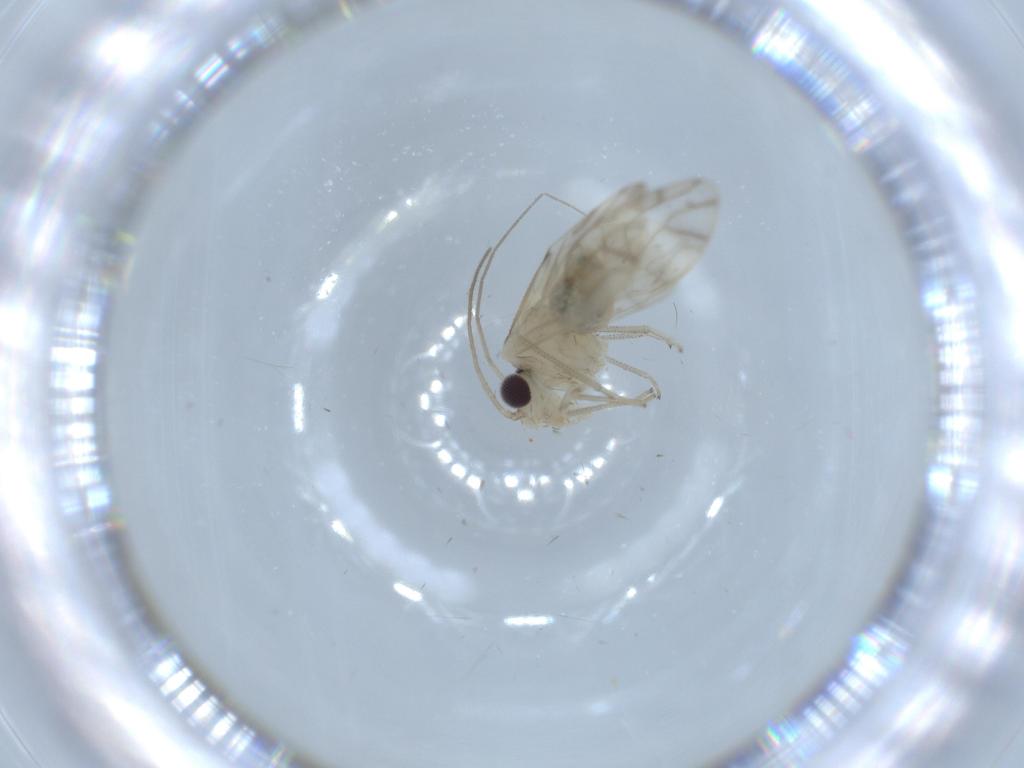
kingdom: Animalia
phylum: Arthropoda
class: Insecta
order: Psocodea
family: Caeciliusidae
